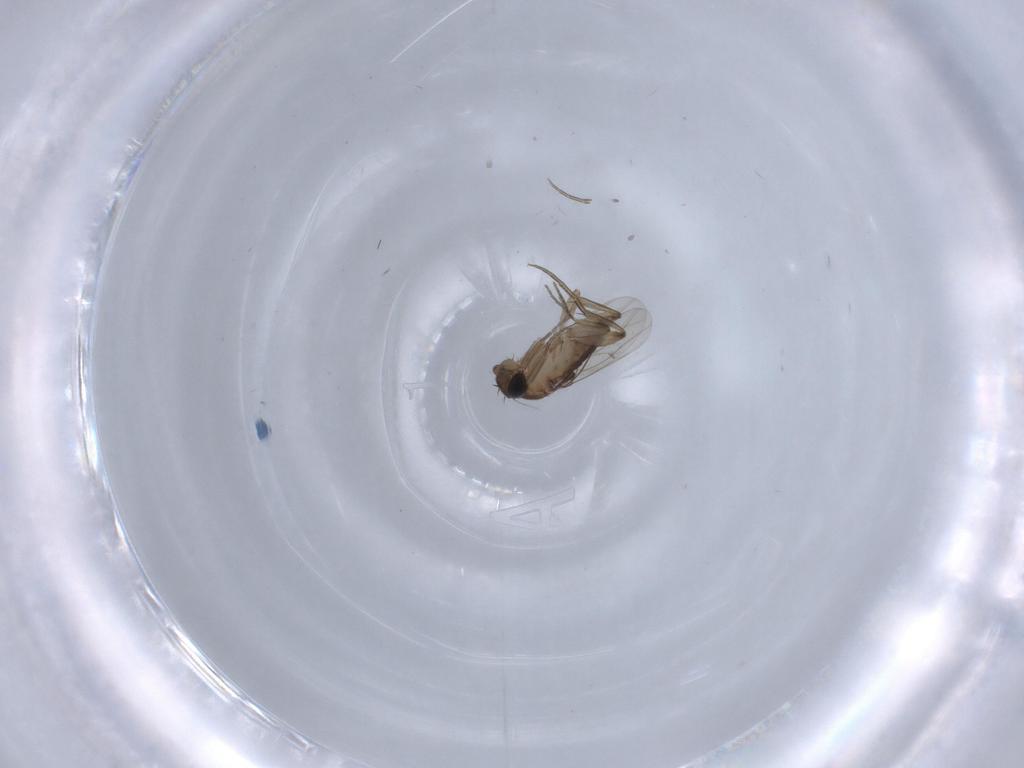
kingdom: Animalia
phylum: Arthropoda
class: Insecta
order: Diptera
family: Phoridae
